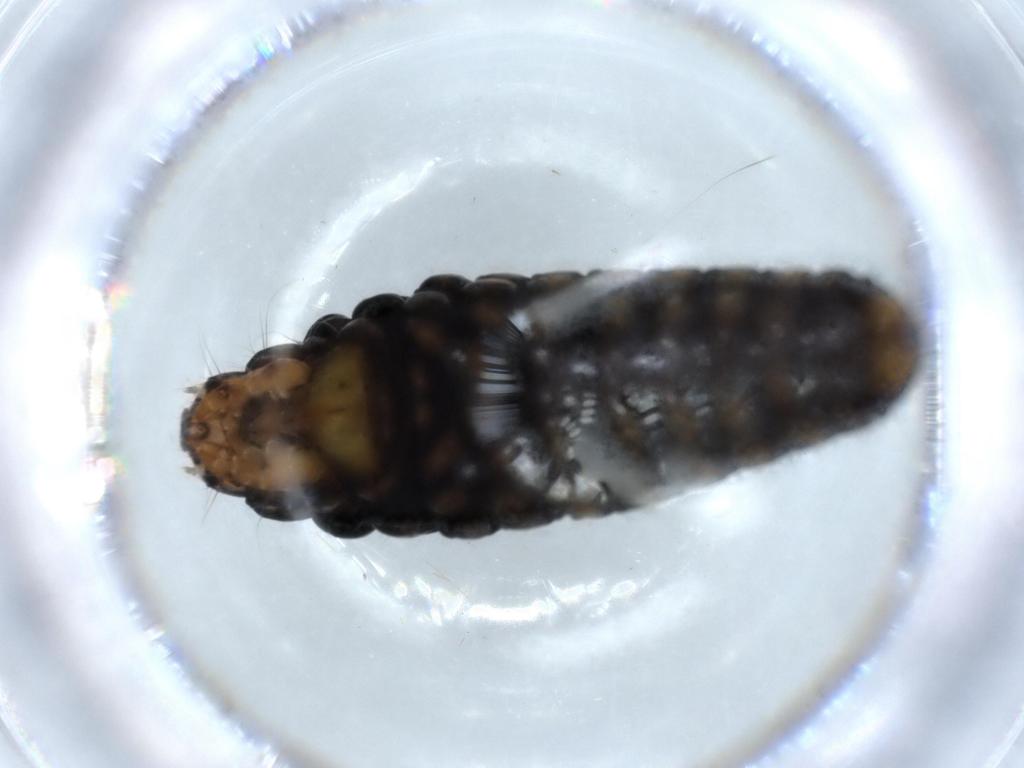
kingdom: Animalia
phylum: Arthropoda
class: Insecta
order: Lepidoptera
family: Psychidae
